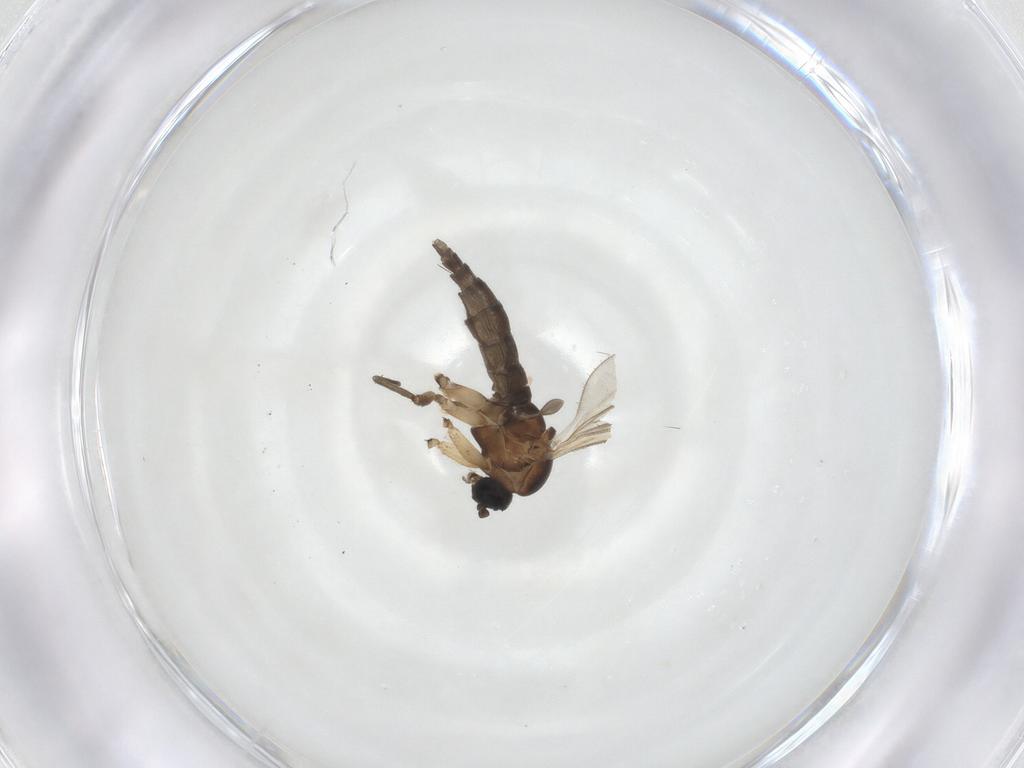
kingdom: Animalia
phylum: Arthropoda
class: Insecta
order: Diptera
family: Sciaridae
